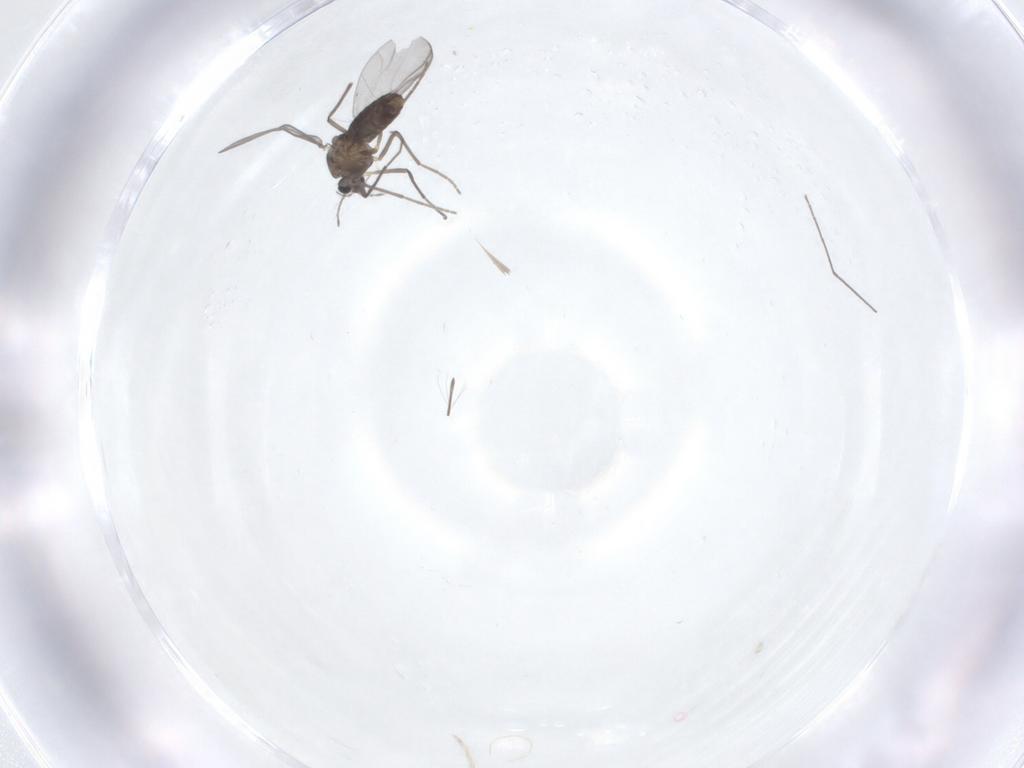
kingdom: Animalia
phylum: Arthropoda
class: Insecta
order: Diptera
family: Chironomidae
